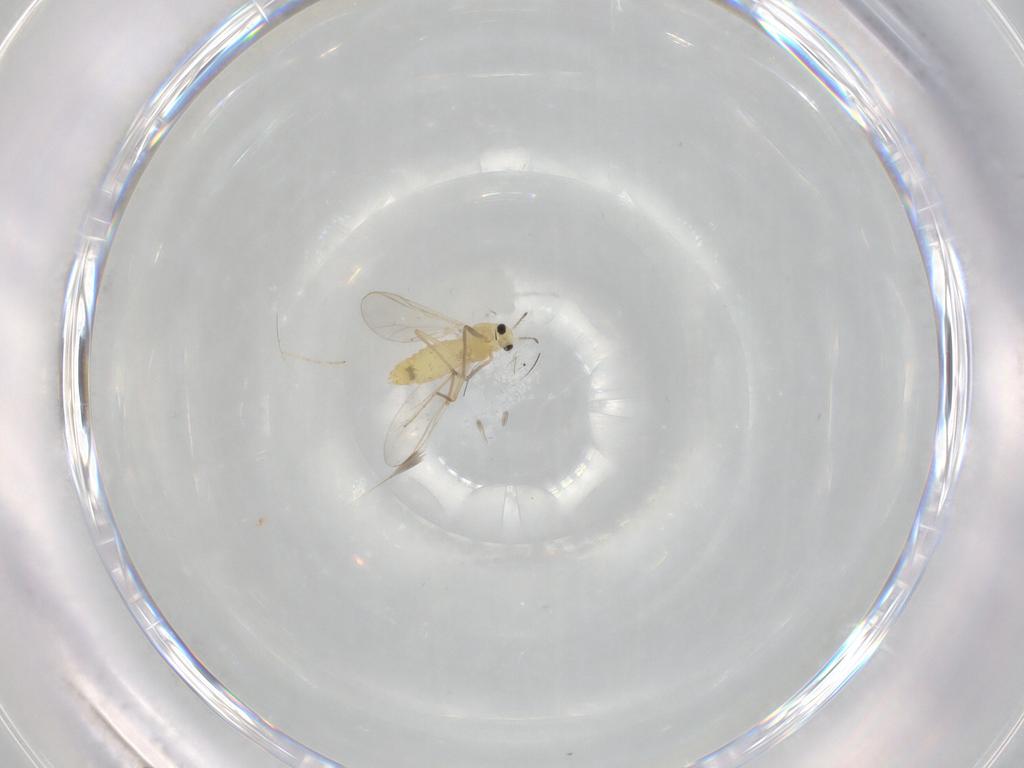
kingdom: Animalia
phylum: Arthropoda
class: Insecta
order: Diptera
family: Chironomidae
